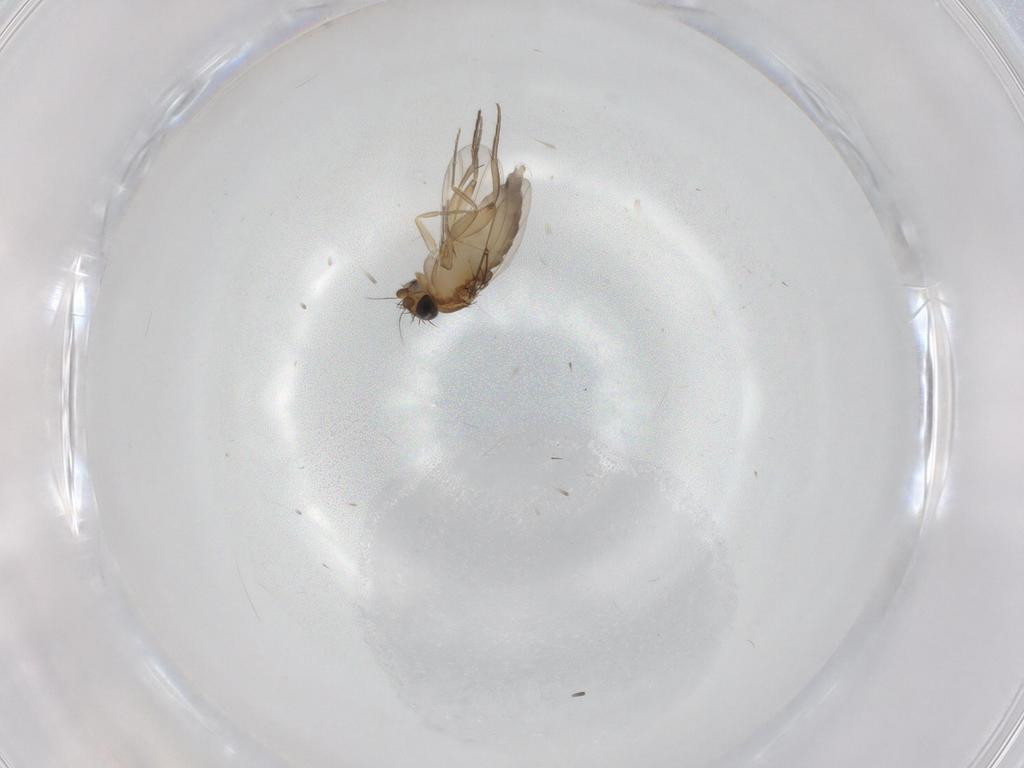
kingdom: Animalia
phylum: Arthropoda
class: Insecta
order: Diptera
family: Phoridae
